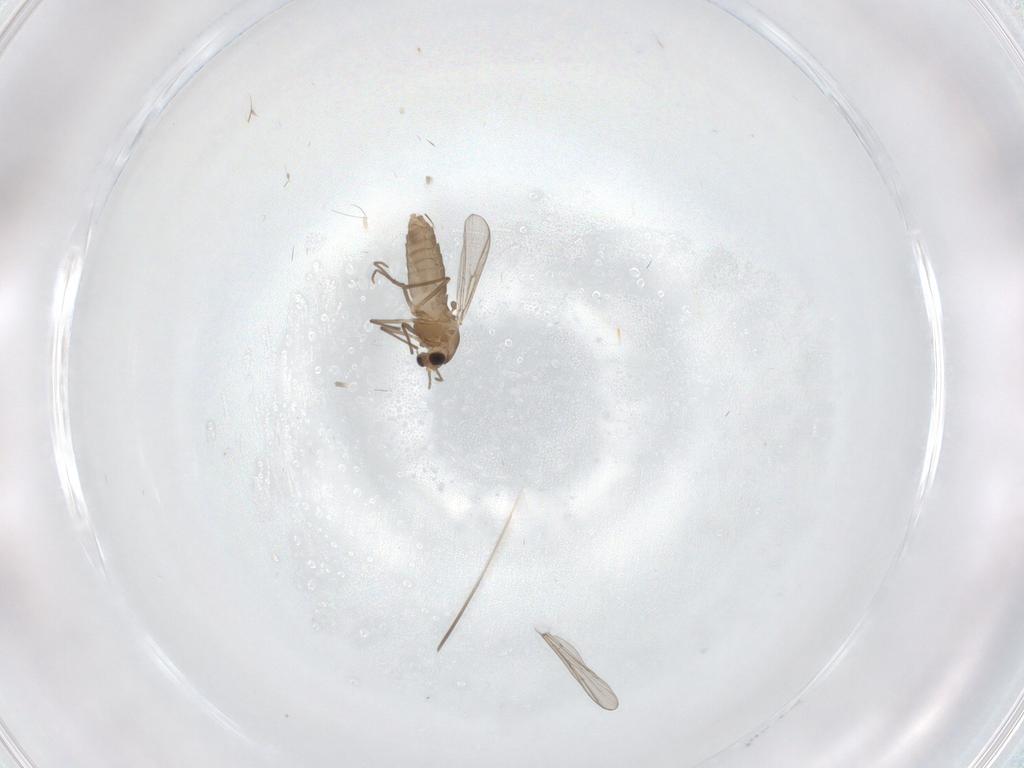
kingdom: Animalia
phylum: Arthropoda
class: Insecta
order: Diptera
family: Chironomidae
